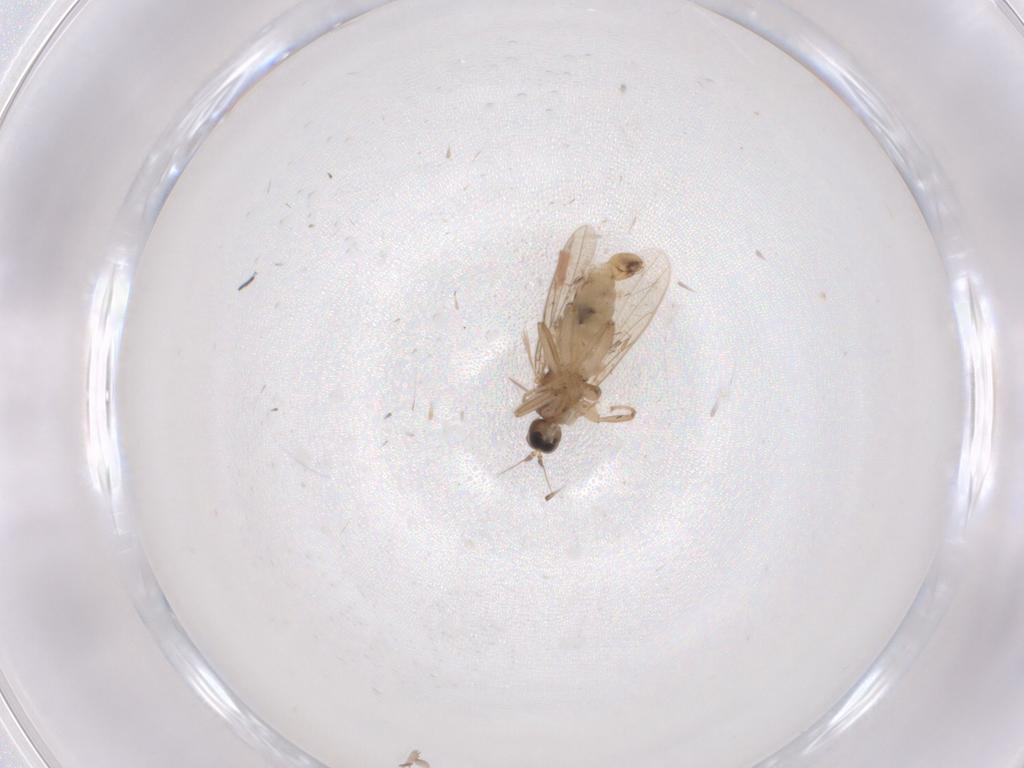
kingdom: Animalia
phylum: Arthropoda
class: Insecta
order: Diptera
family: Hybotidae
